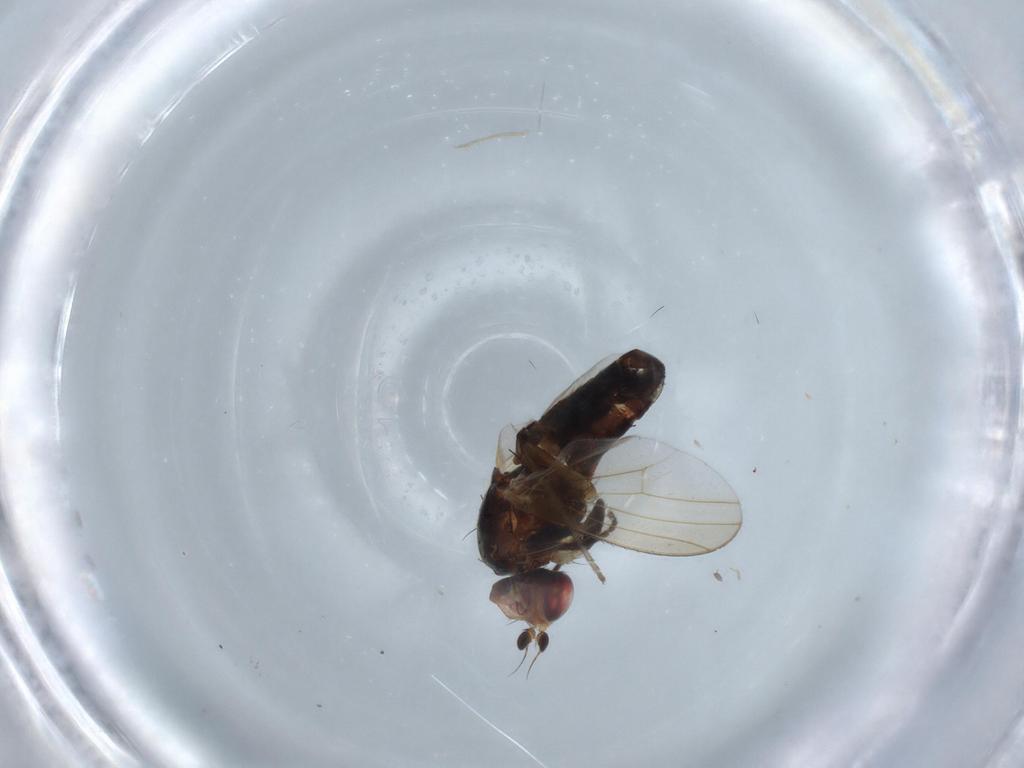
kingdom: Animalia
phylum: Arthropoda
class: Insecta
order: Diptera
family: Heleomyzidae
